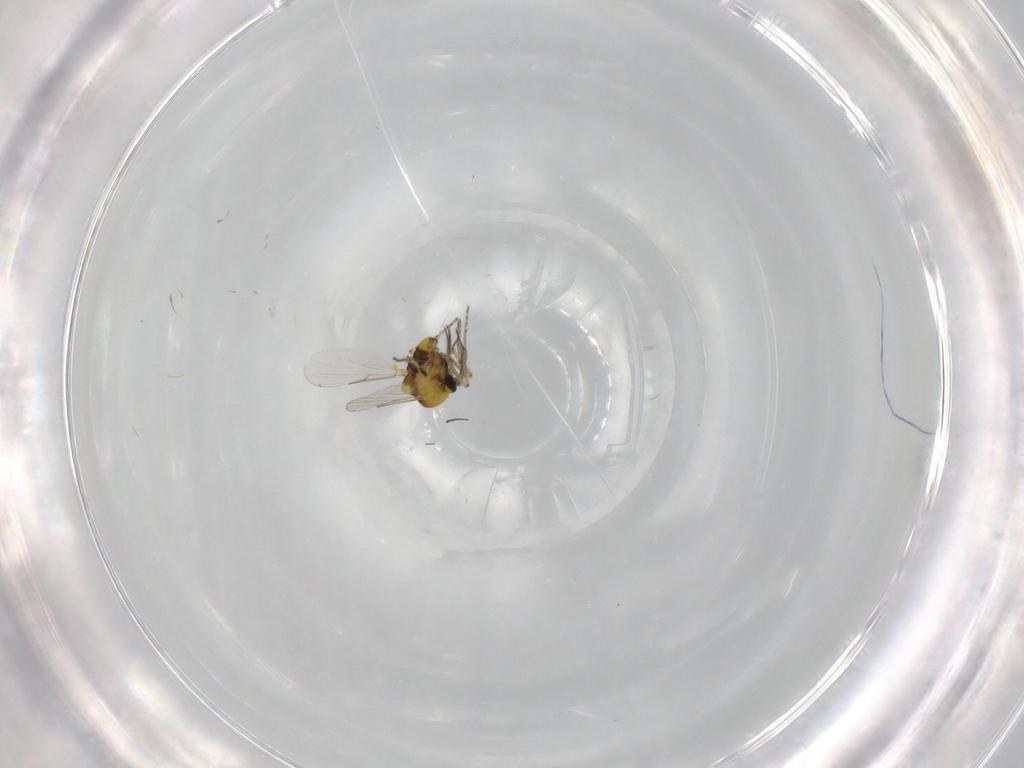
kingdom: Animalia
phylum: Arthropoda
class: Insecta
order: Diptera
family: Ceratopogonidae
